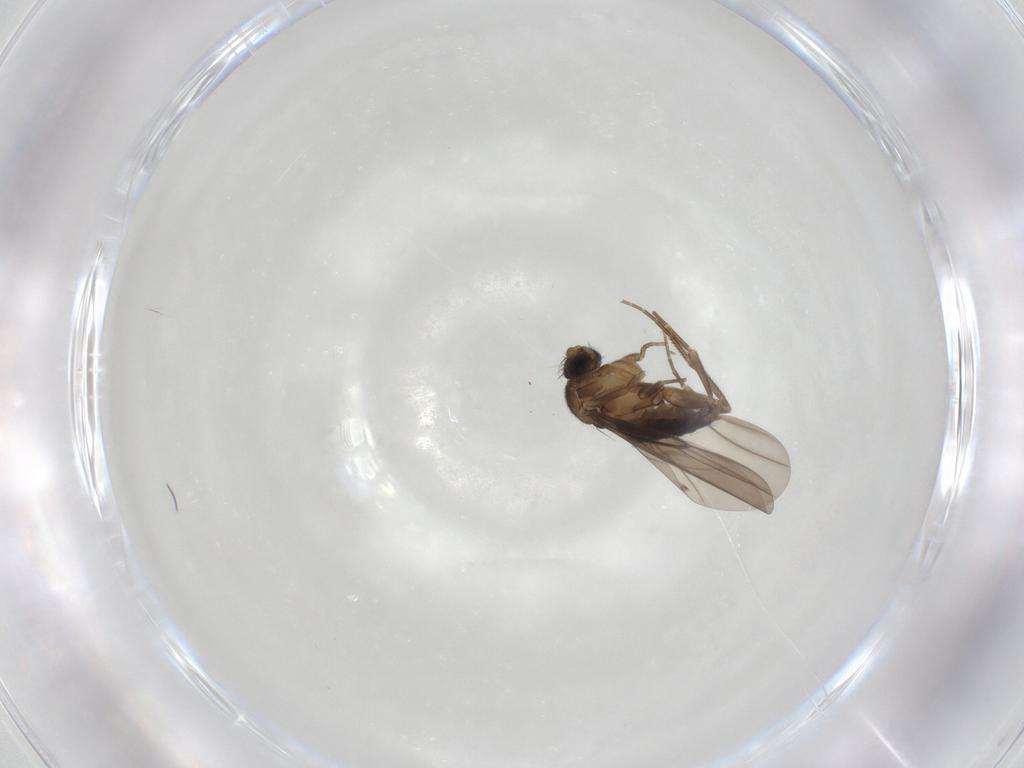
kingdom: Animalia
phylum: Arthropoda
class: Insecta
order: Diptera
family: Phoridae
